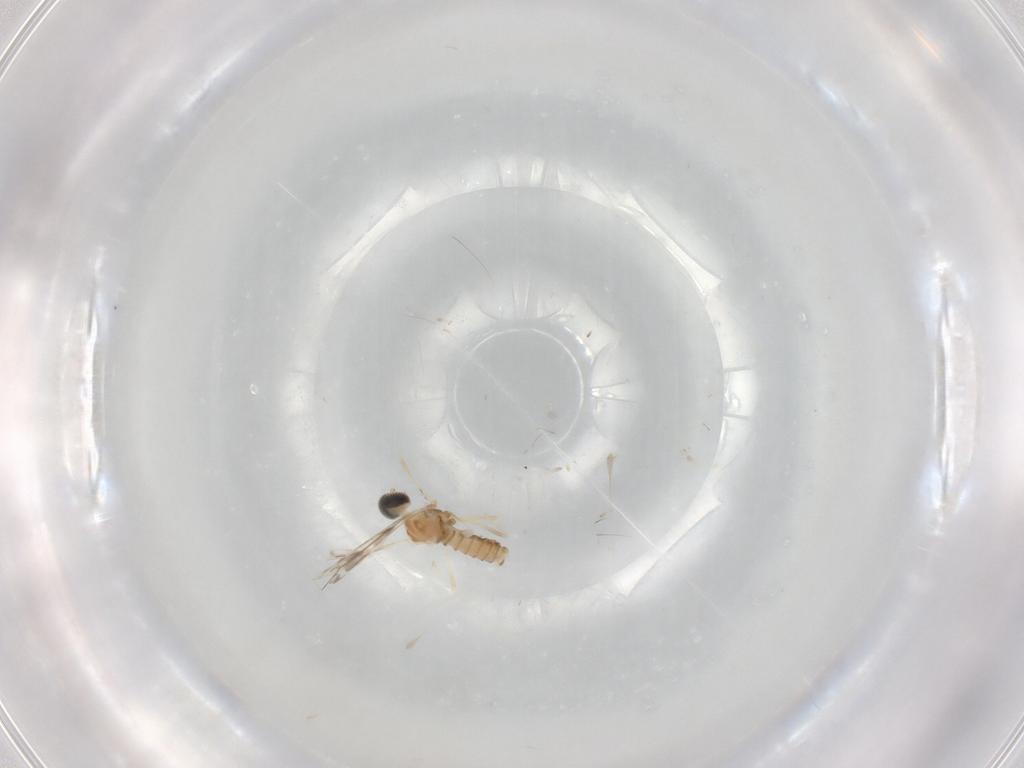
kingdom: Animalia
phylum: Arthropoda
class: Insecta
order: Diptera
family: Cecidomyiidae
